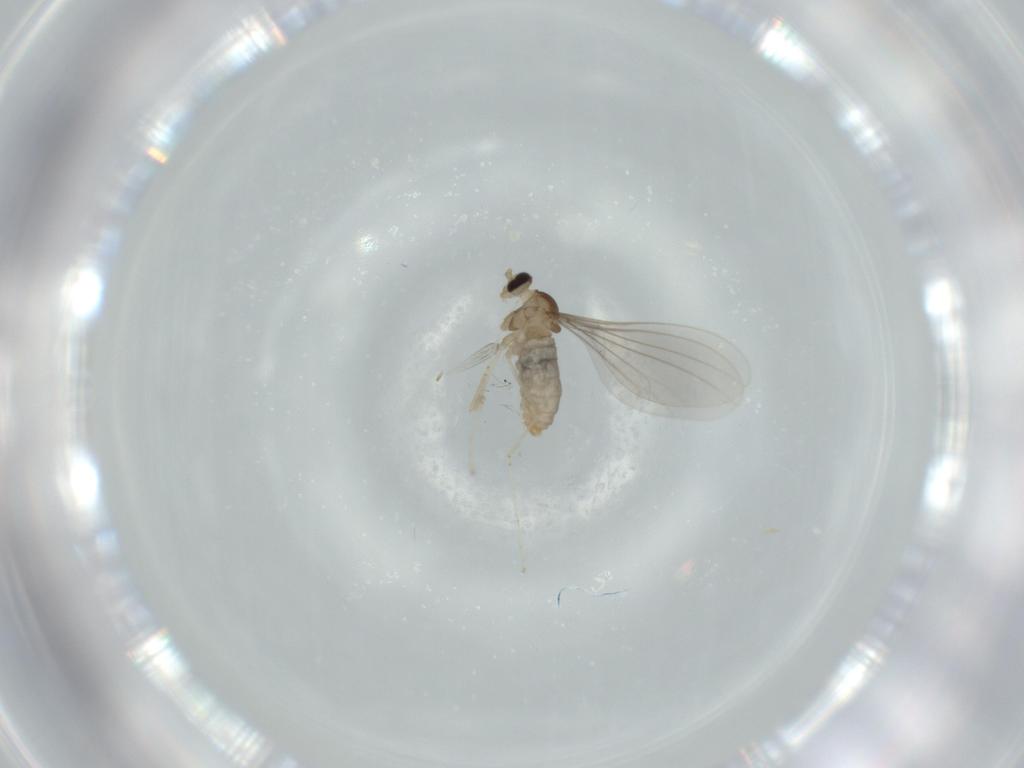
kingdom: Animalia
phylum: Arthropoda
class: Insecta
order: Diptera
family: Cecidomyiidae
